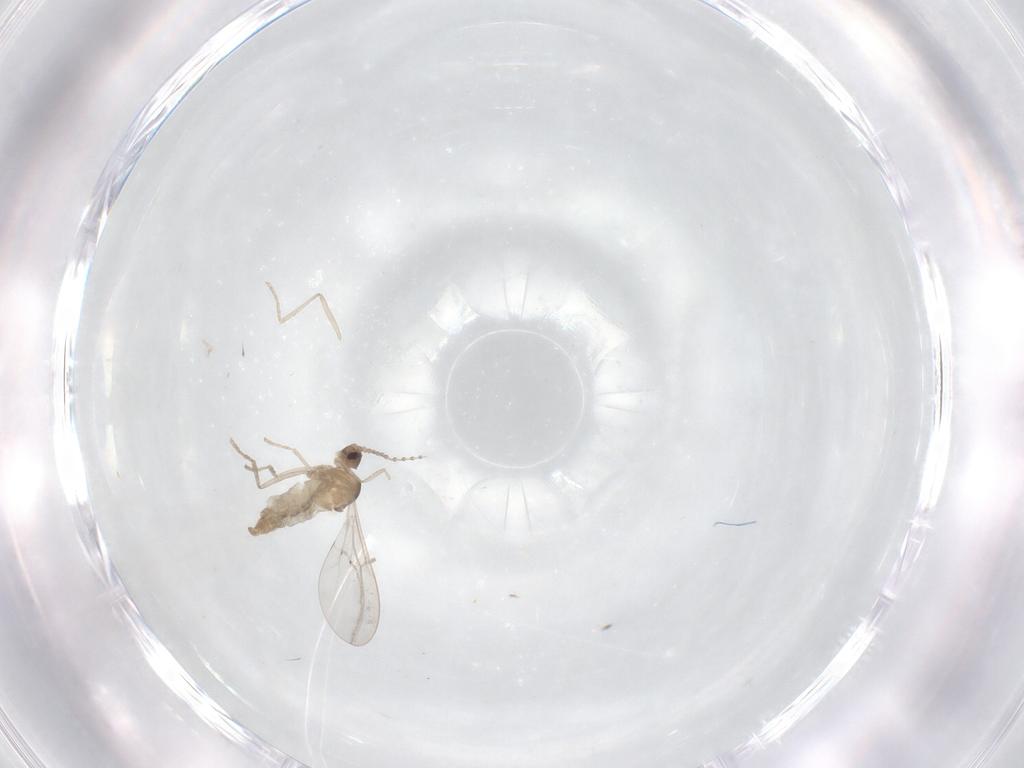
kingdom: Animalia
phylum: Arthropoda
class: Insecta
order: Diptera
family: Cecidomyiidae
